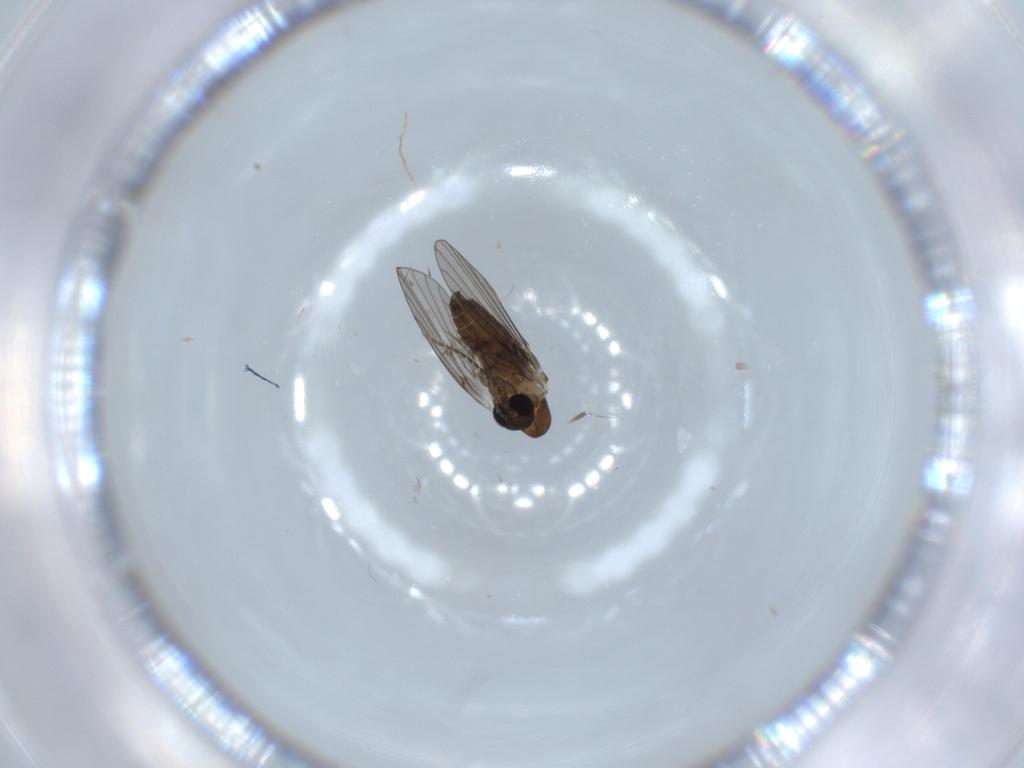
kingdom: Animalia
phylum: Arthropoda
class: Insecta
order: Diptera
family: Psychodidae
